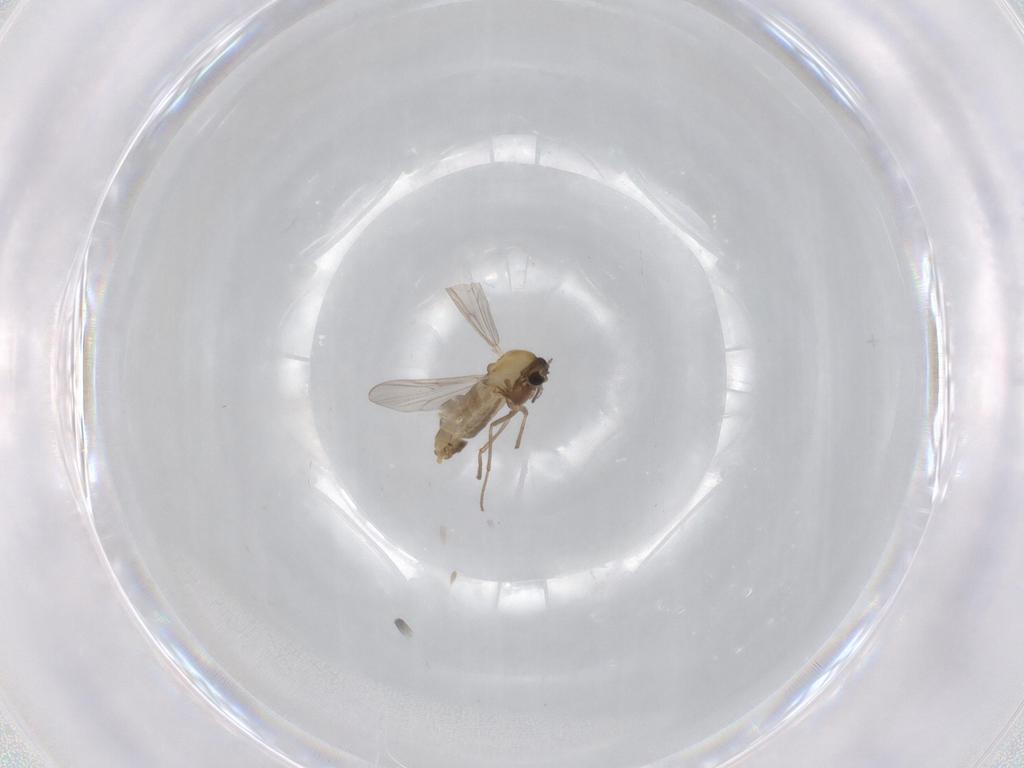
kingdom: Animalia
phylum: Arthropoda
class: Insecta
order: Diptera
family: Chironomidae
